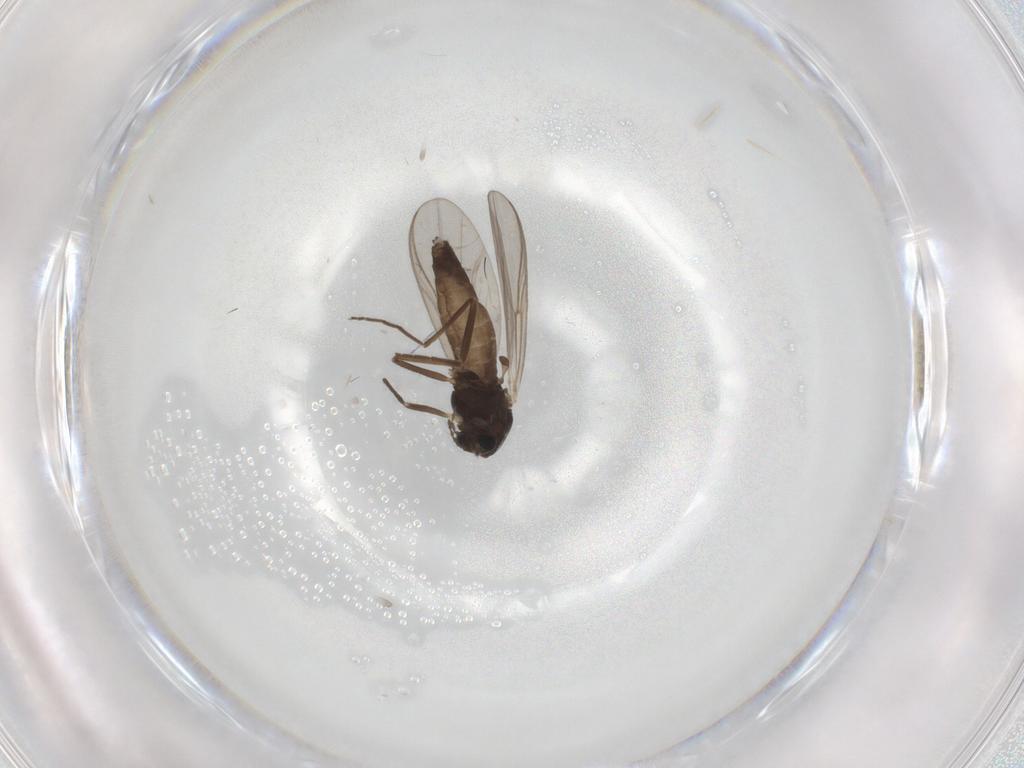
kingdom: Animalia
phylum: Arthropoda
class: Insecta
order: Diptera
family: Chironomidae
